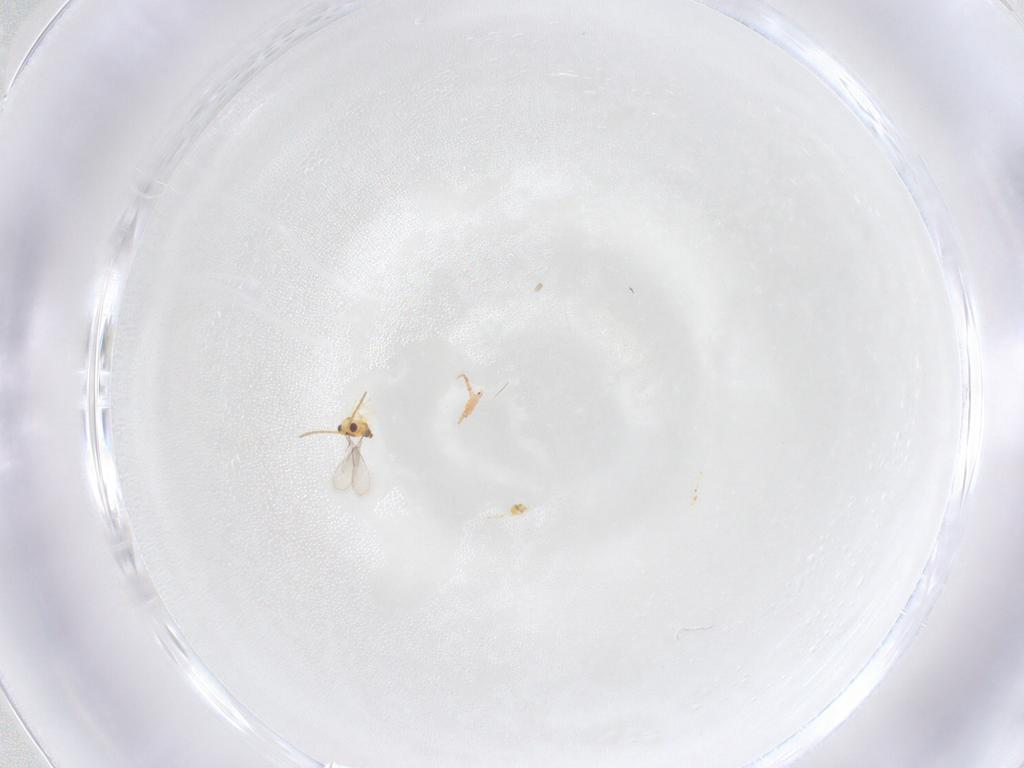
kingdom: Animalia
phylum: Arthropoda
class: Insecta
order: Hymenoptera
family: Aphelinidae
